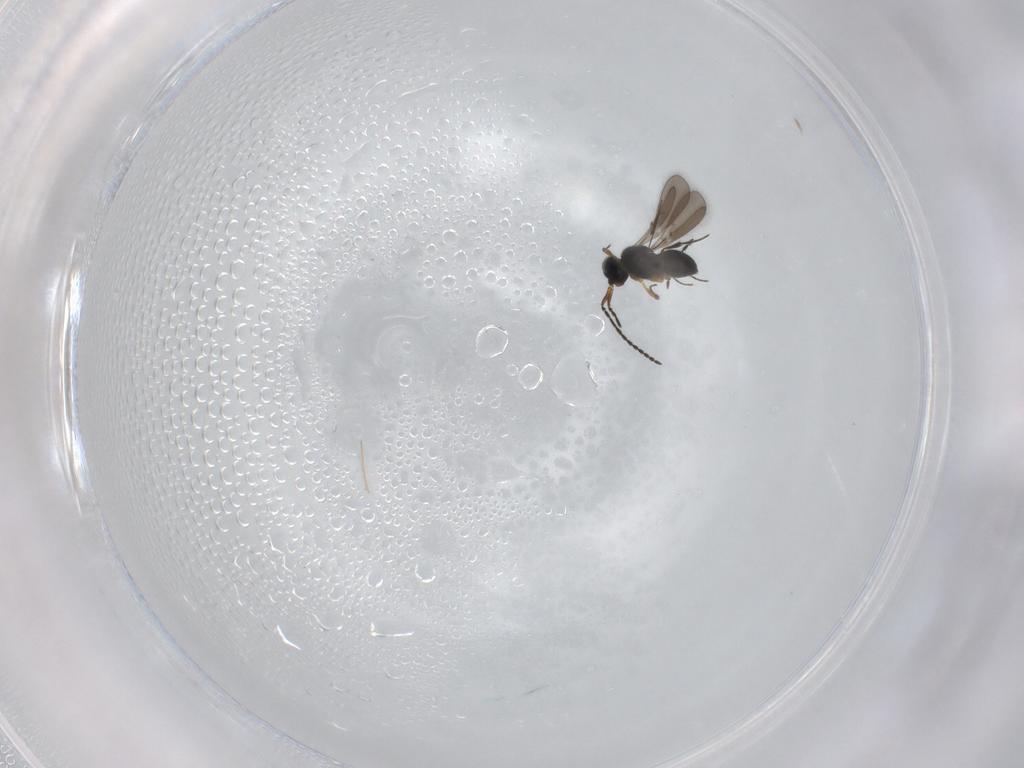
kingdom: Animalia
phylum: Arthropoda
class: Insecta
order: Hymenoptera
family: Scelionidae
